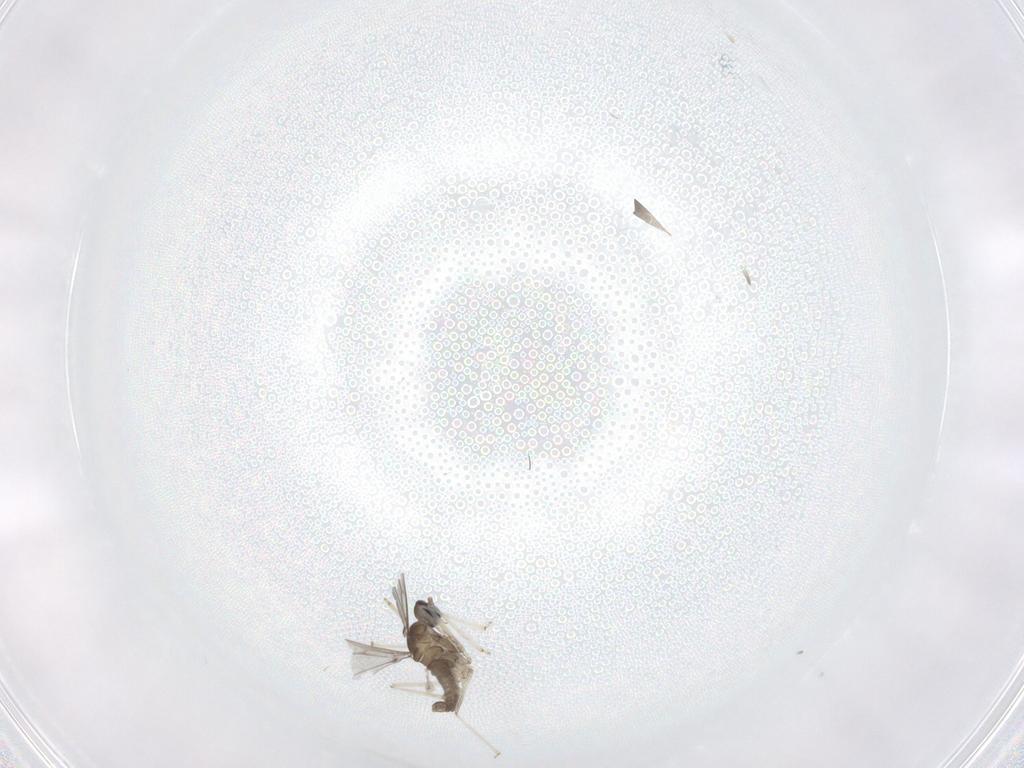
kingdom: Animalia
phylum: Arthropoda
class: Insecta
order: Diptera
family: Cecidomyiidae
